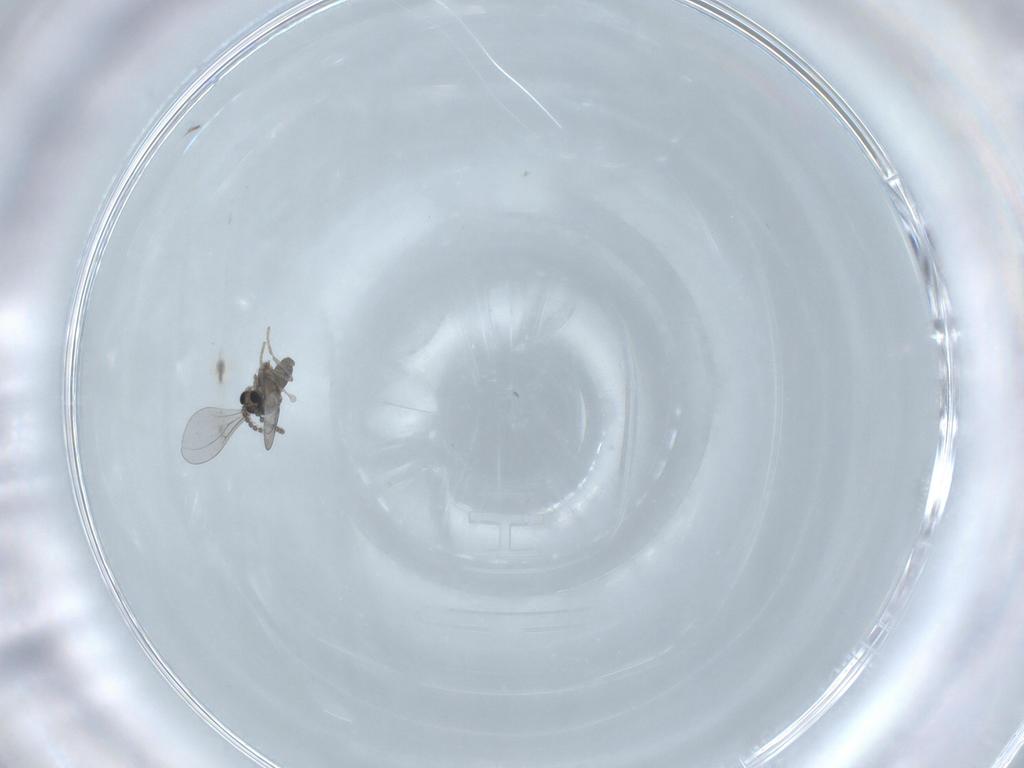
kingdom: Animalia
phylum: Arthropoda
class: Insecta
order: Diptera
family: Cecidomyiidae
